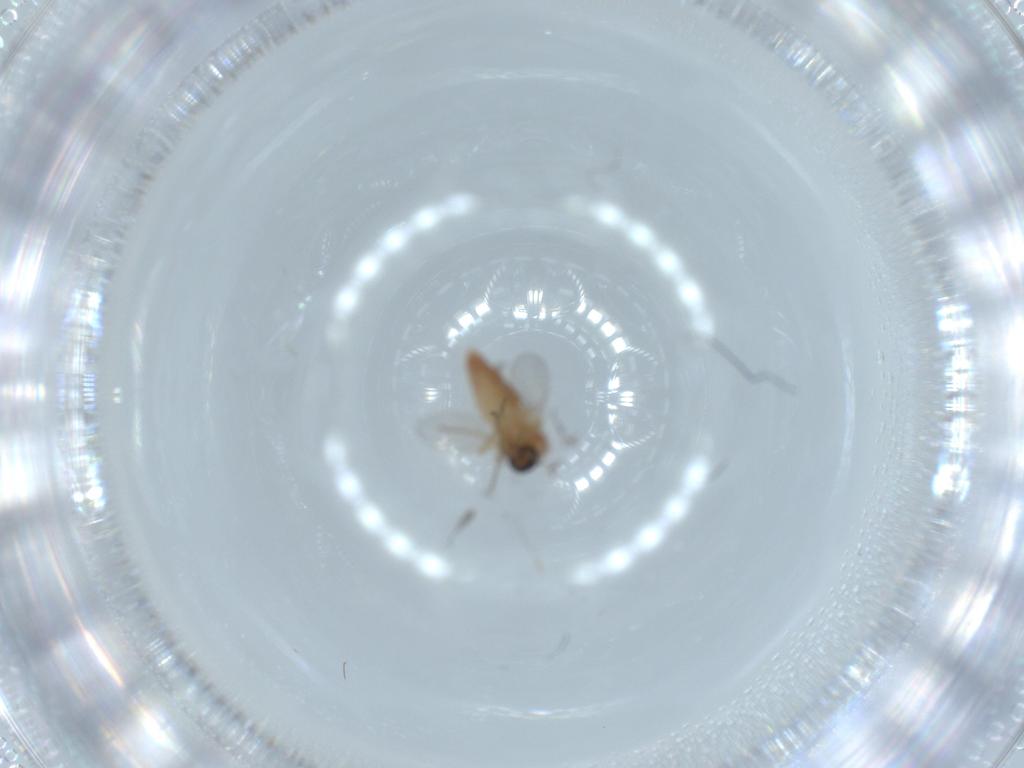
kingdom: Animalia
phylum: Arthropoda
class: Insecta
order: Diptera
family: Ceratopogonidae
